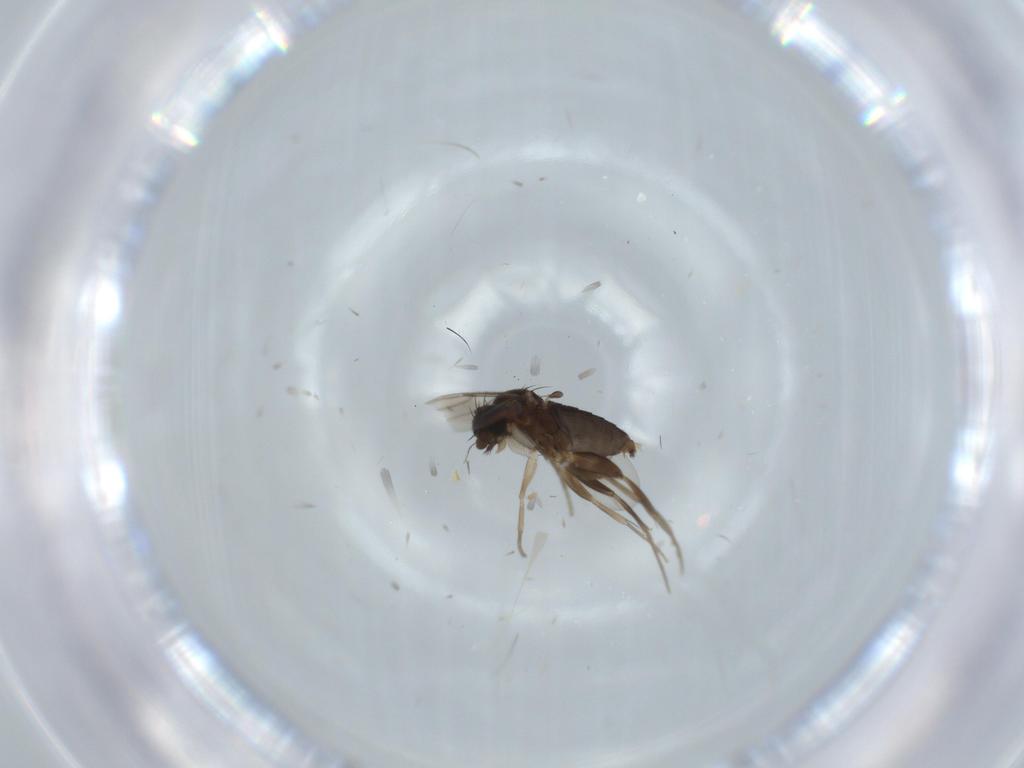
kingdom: Animalia
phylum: Arthropoda
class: Insecta
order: Diptera
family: Phoridae
